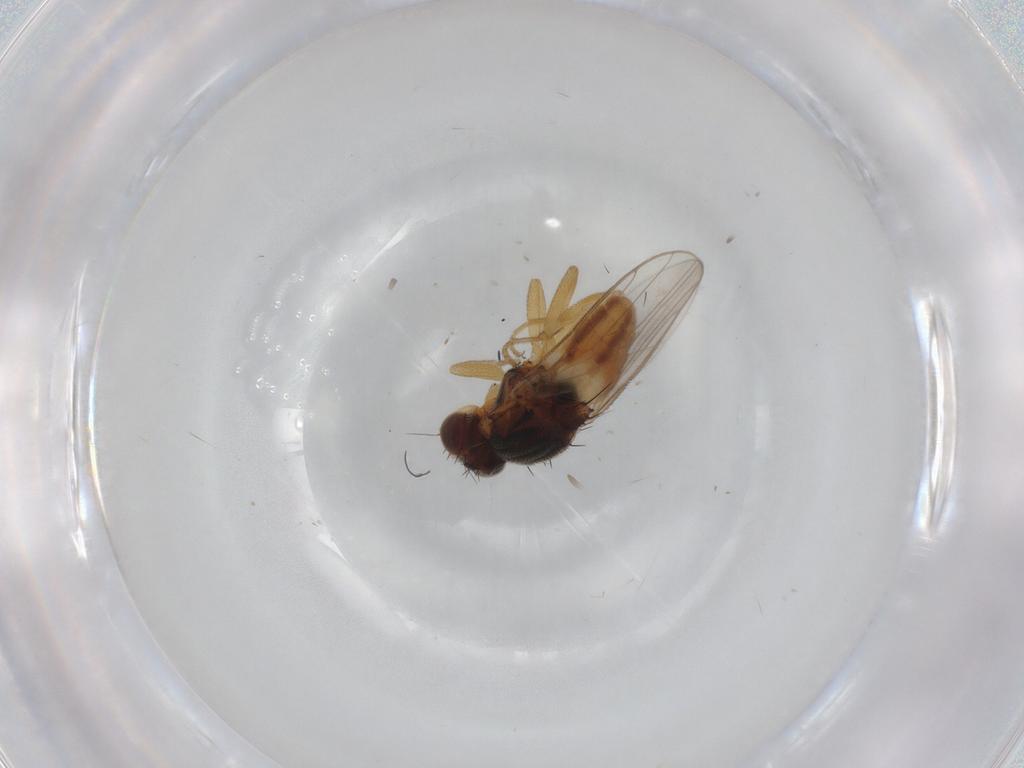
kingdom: Animalia
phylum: Arthropoda
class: Insecta
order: Diptera
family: Chloropidae
